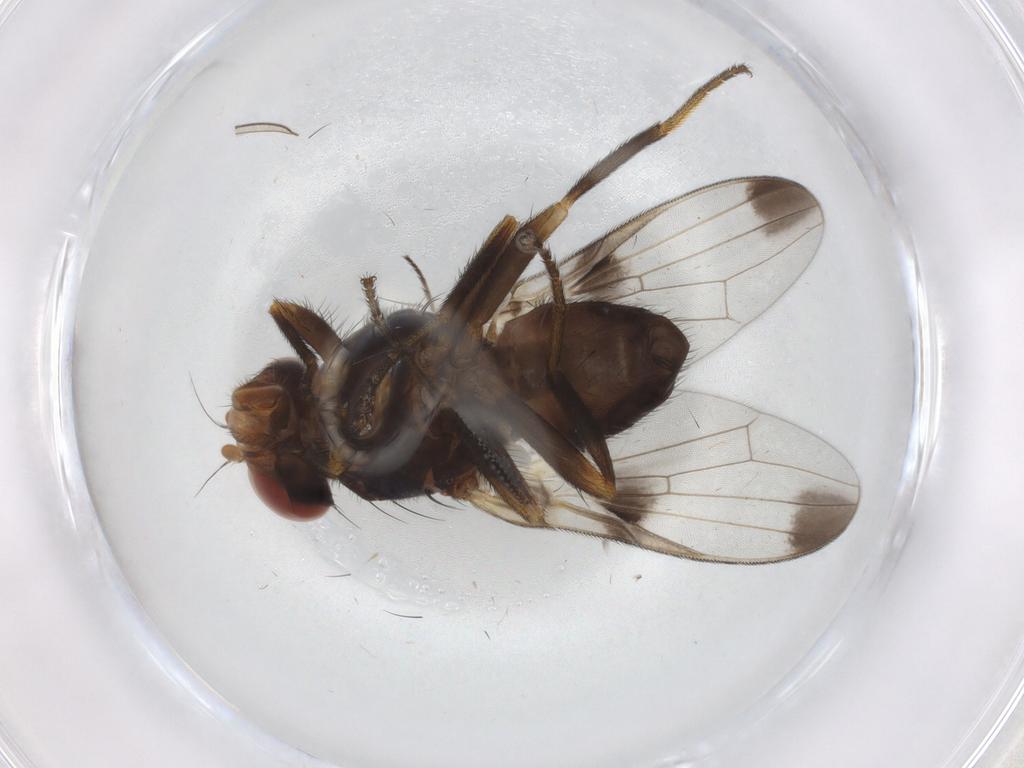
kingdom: Animalia
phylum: Arthropoda
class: Insecta
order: Diptera
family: Ulidiidae
